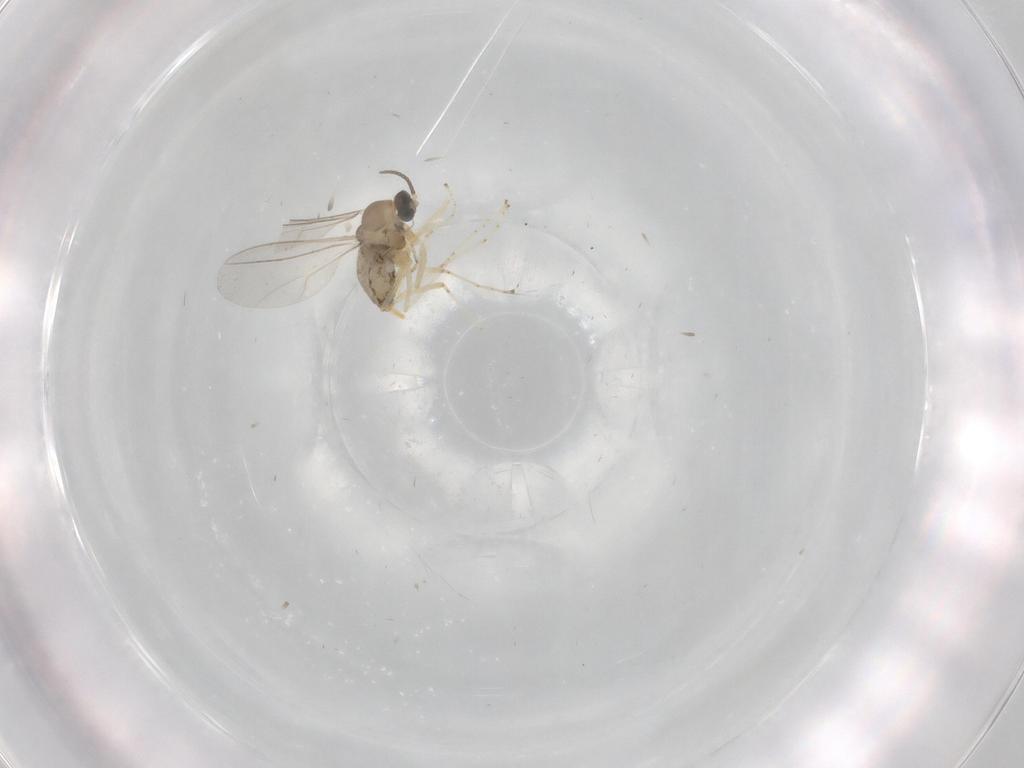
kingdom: Animalia
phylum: Arthropoda
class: Insecta
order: Diptera
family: Cecidomyiidae
